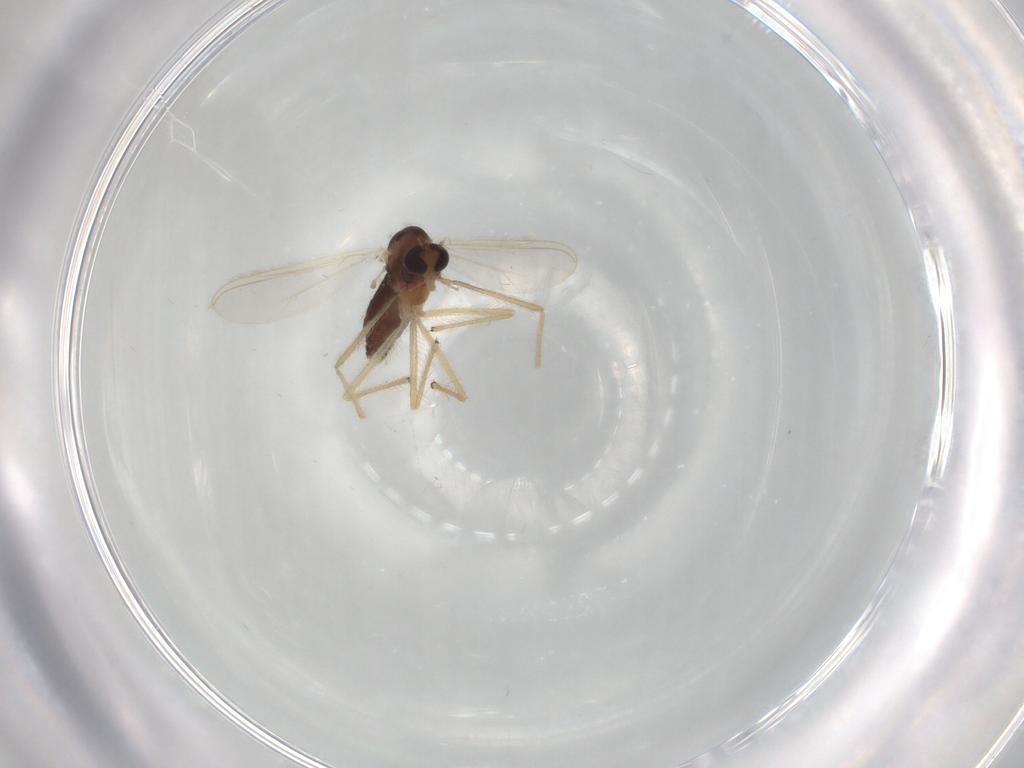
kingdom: Animalia
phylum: Arthropoda
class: Insecta
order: Diptera
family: Chironomidae
